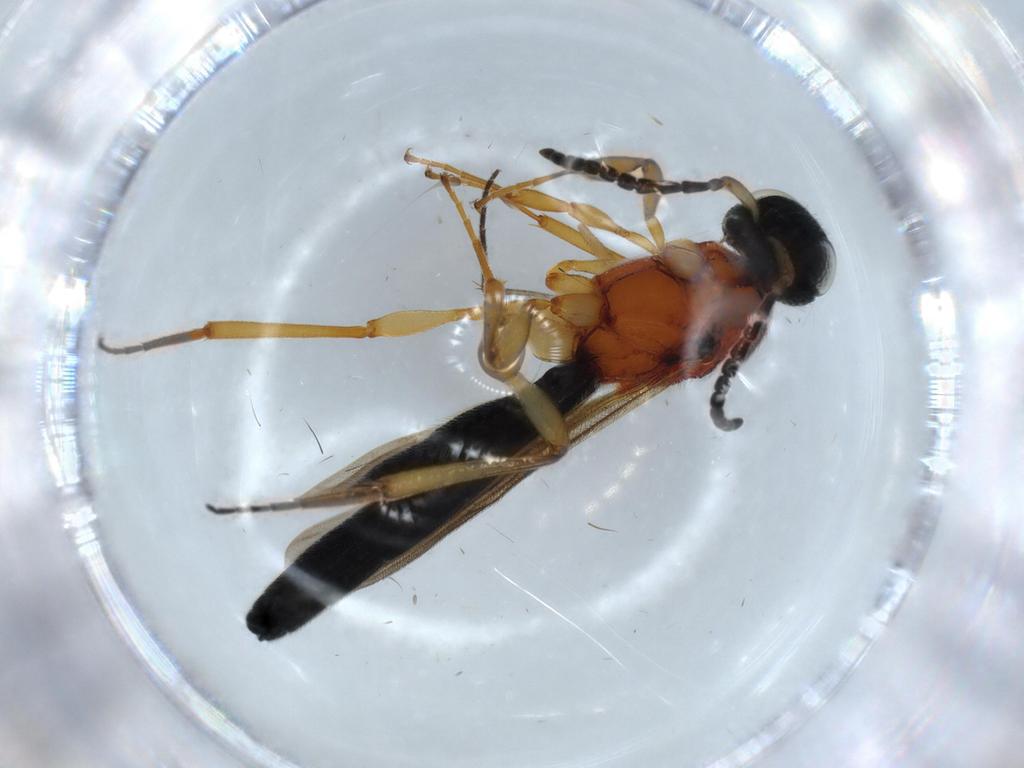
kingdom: Animalia
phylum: Arthropoda
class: Insecta
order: Hymenoptera
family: Scelionidae
